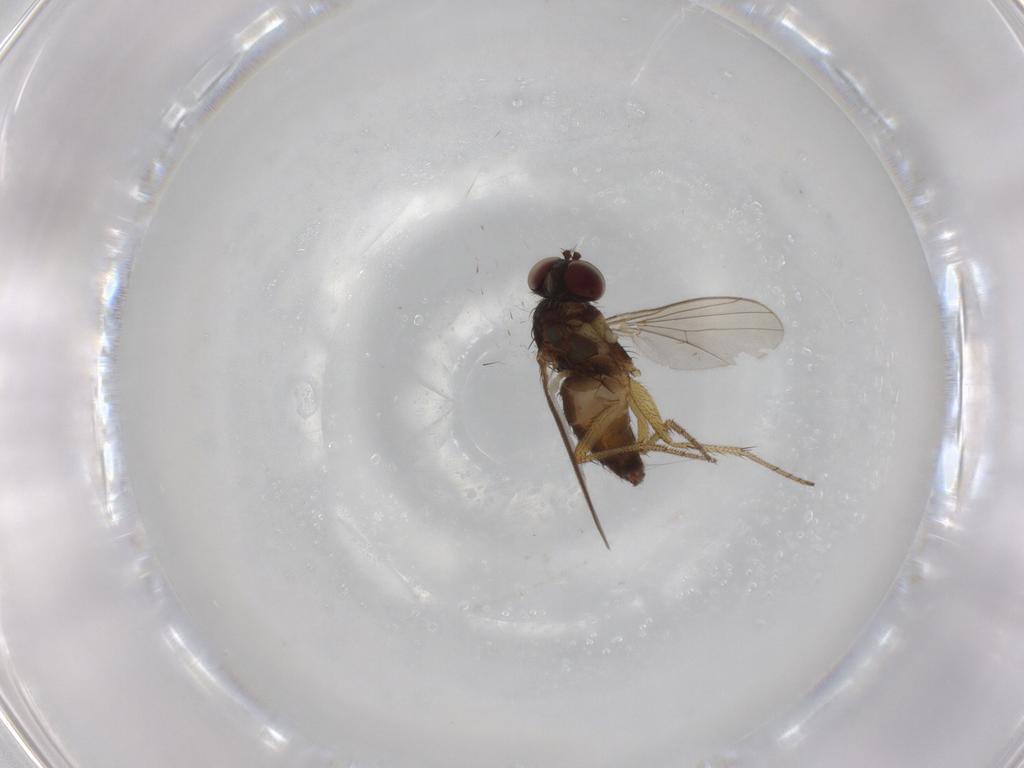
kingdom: Animalia
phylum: Arthropoda
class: Insecta
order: Diptera
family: Dolichopodidae
